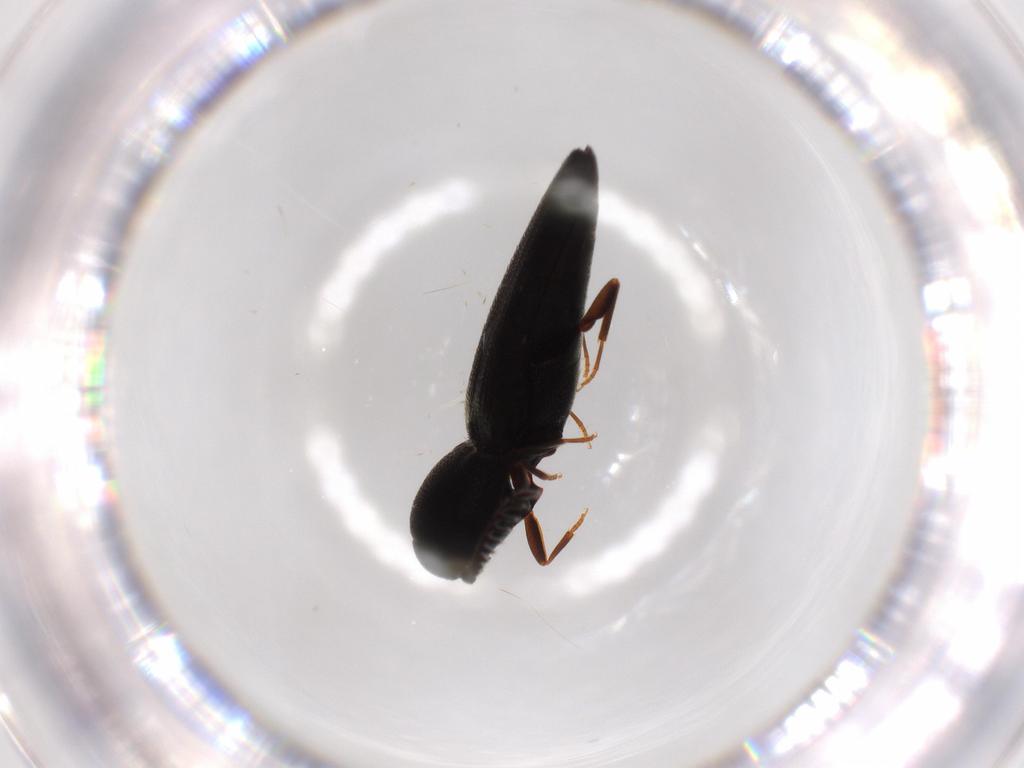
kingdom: Animalia
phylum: Arthropoda
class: Insecta
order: Coleoptera
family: Eucnemidae
